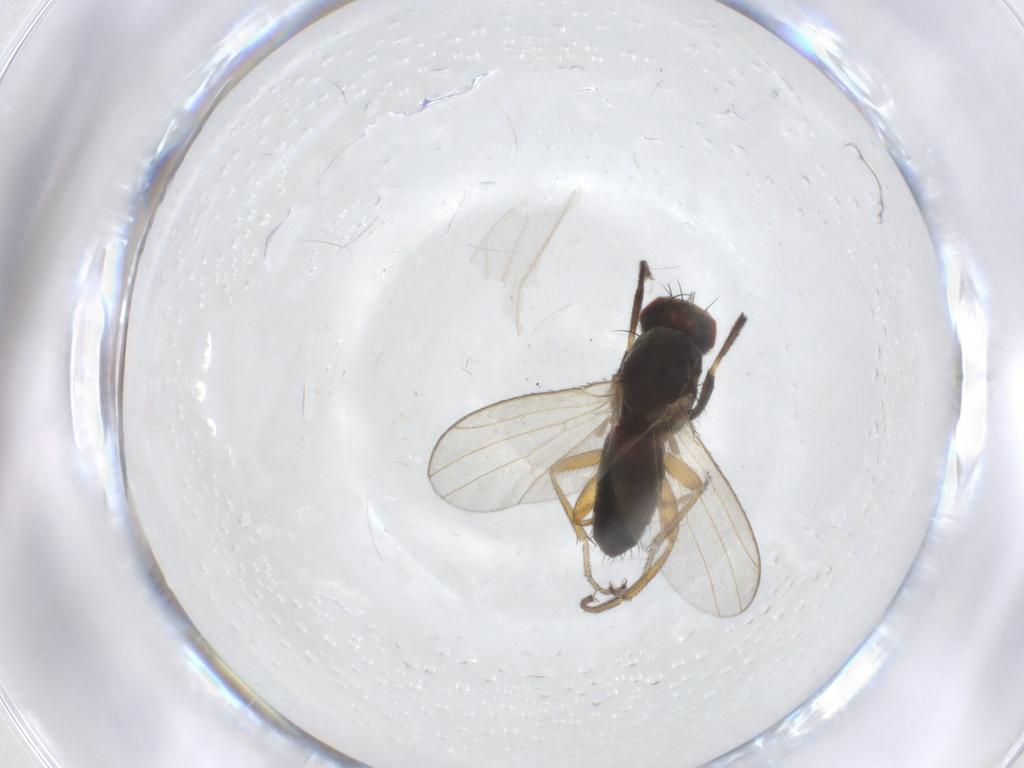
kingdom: Animalia
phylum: Arthropoda
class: Insecta
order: Diptera
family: Heleomyzidae
